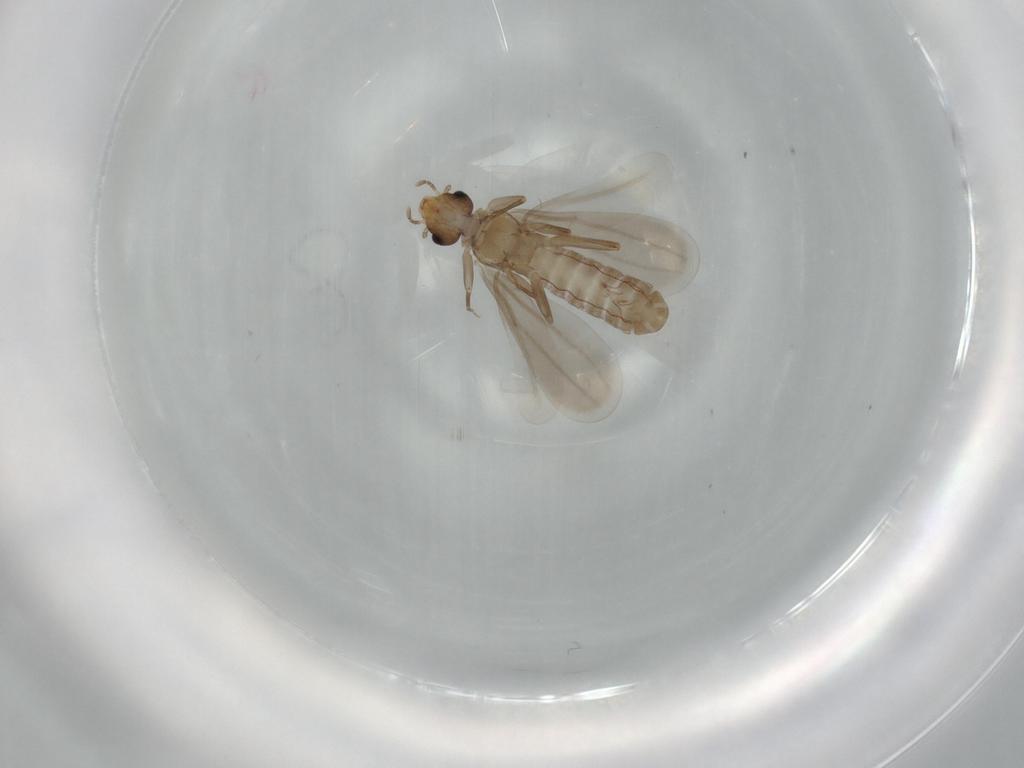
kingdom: Animalia
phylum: Arthropoda
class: Insecta
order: Psocodea
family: Liposcelididae
